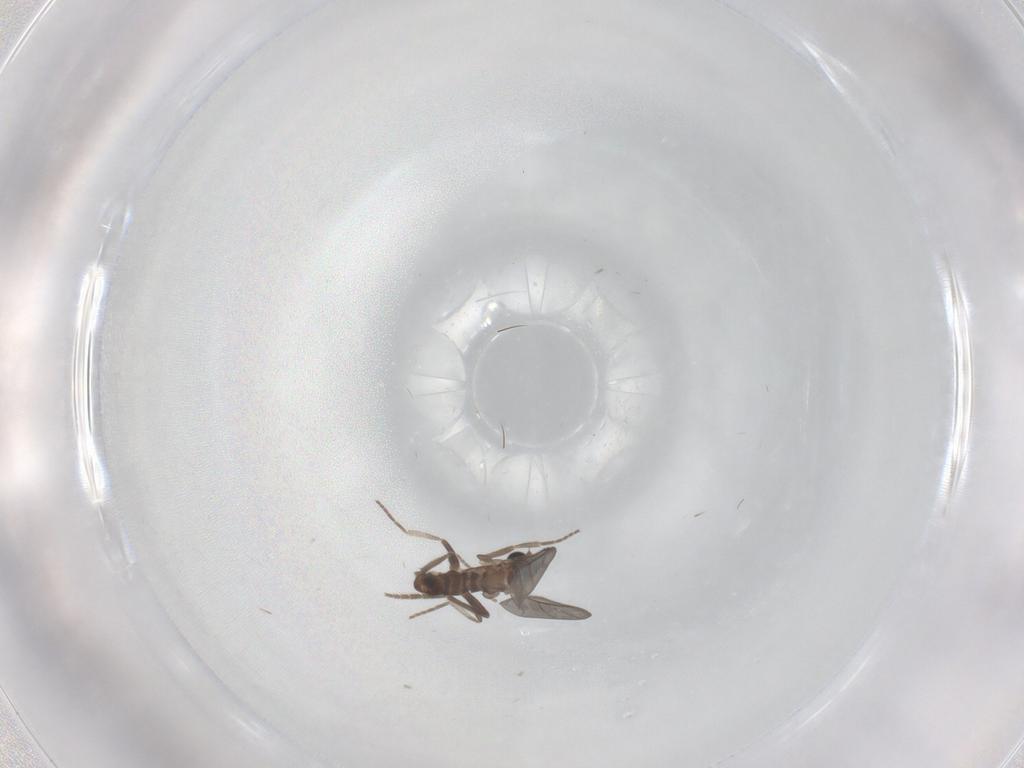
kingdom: Animalia
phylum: Arthropoda
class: Insecta
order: Diptera
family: Phoridae
